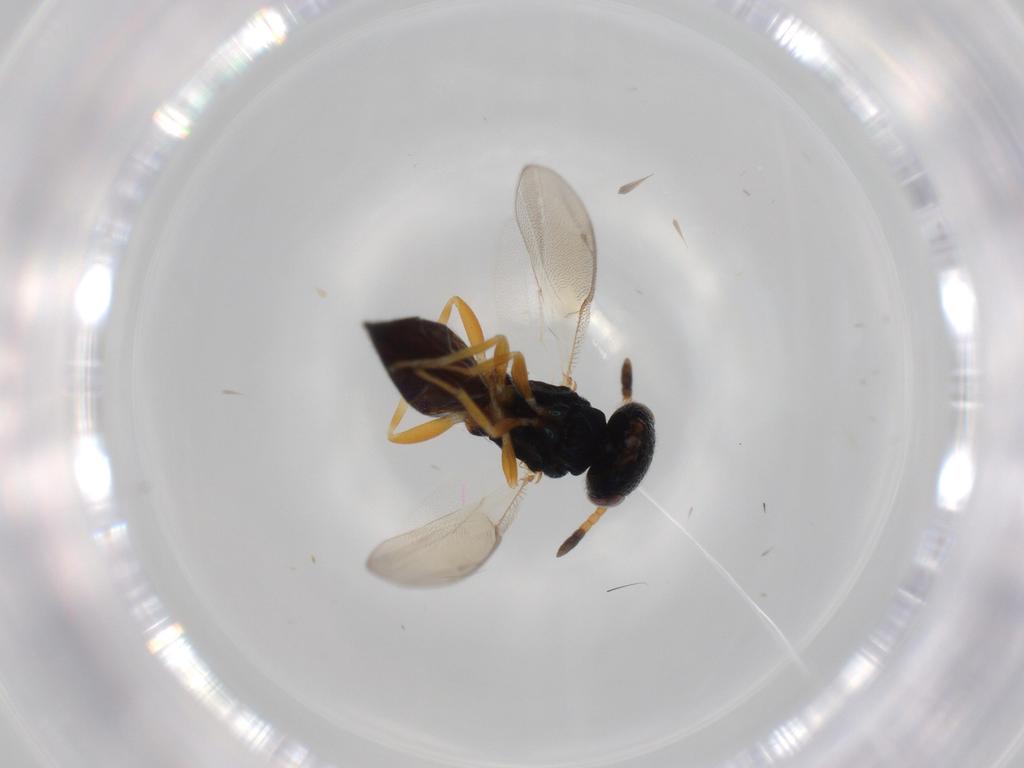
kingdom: Animalia
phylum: Arthropoda
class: Insecta
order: Hymenoptera
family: Pteromalidae
